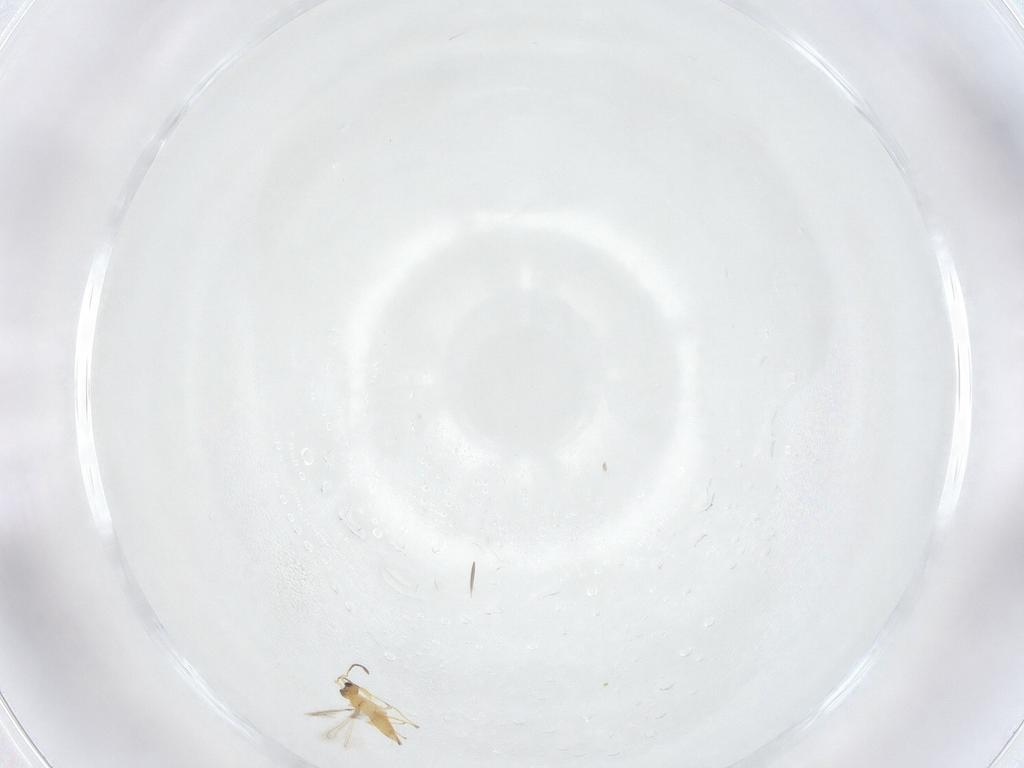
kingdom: Animalia
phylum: Arthropoda
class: Insecta
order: Hymenoptera
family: Mymaridae
